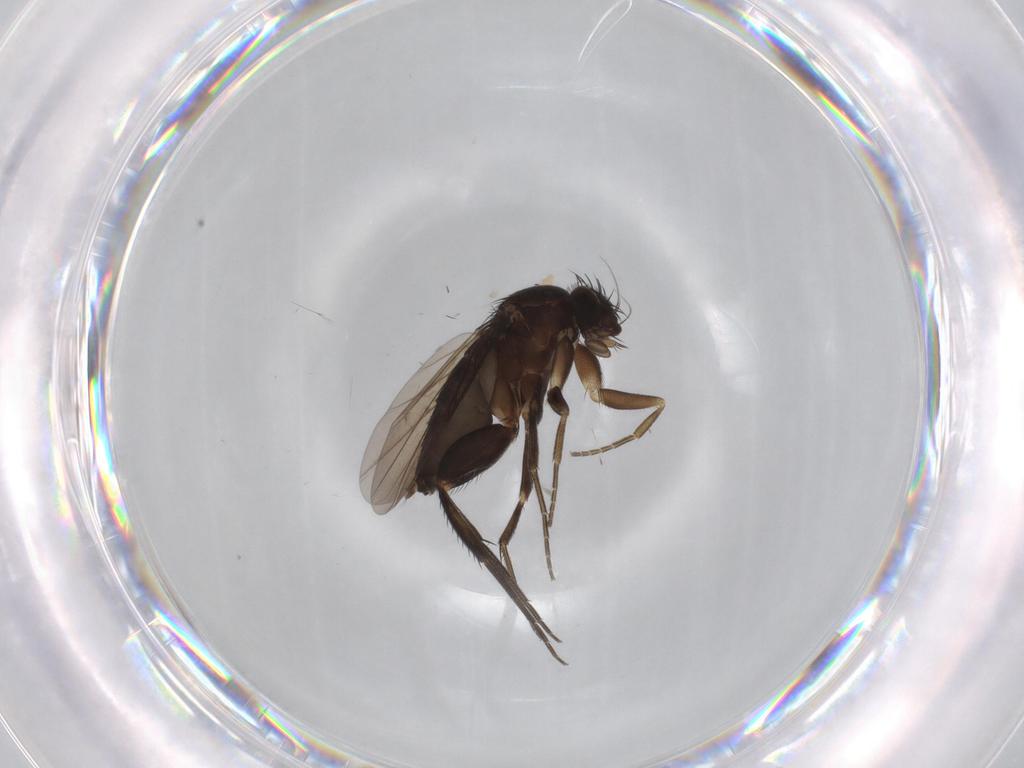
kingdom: Animalia
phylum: Arthropoda
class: Insecta
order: Diptera
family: Phoridae
